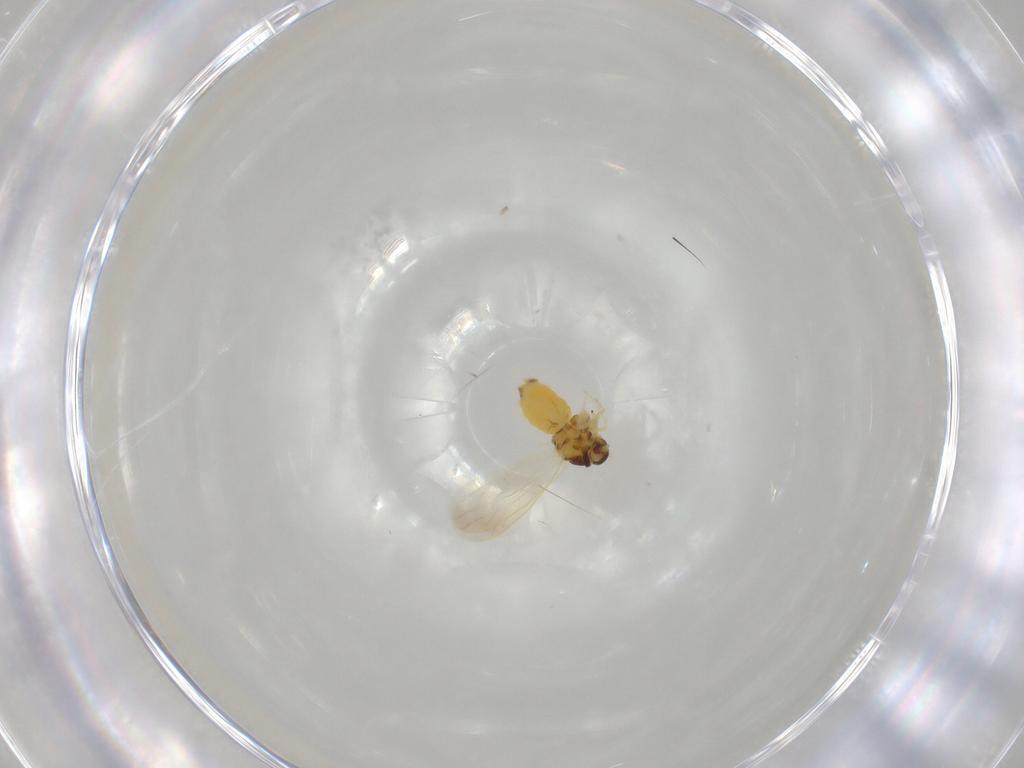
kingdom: Animalia
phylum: Arthropoda
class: Insecta
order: Hemiptera
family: Aleyrodidae
